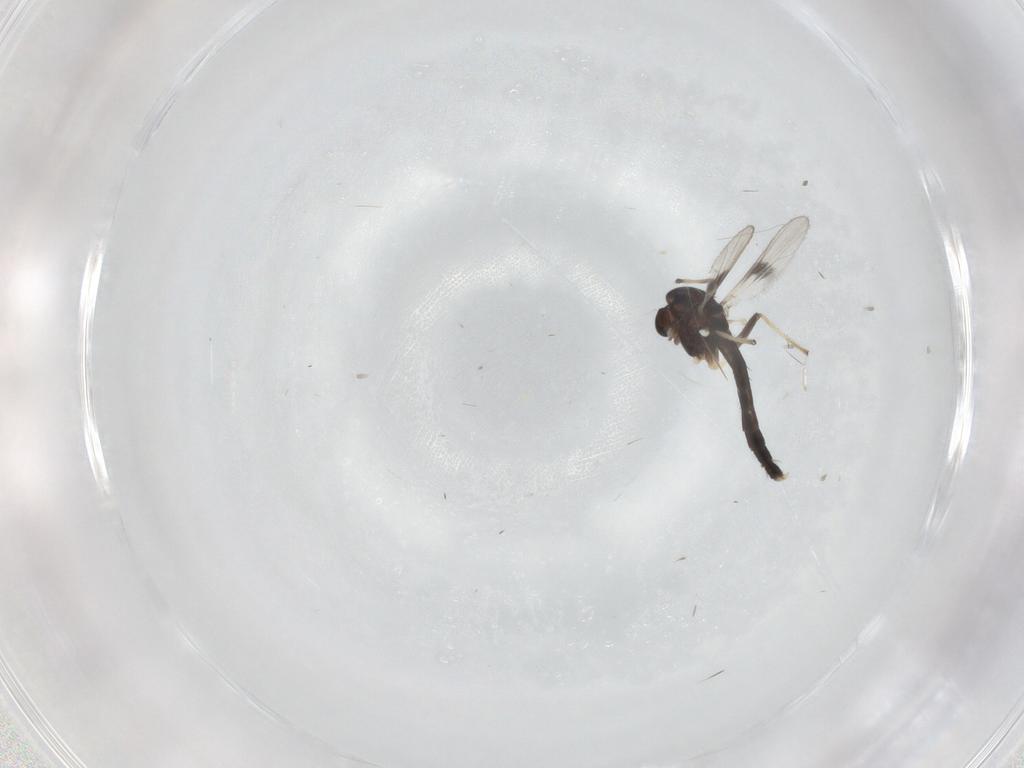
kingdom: Animalia
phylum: Arthropoda
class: Insecta
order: Diptera
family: Chironomidae
